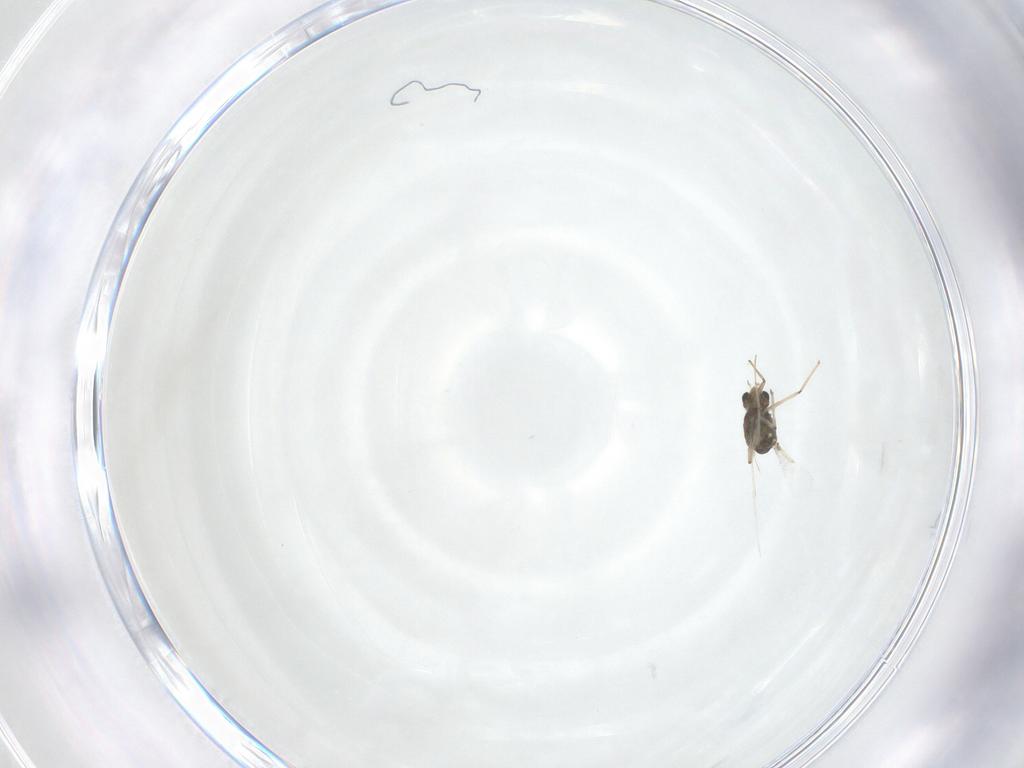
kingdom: Animalia
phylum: Arthropoda
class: Insecta
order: Diptera
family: Chironomidae
